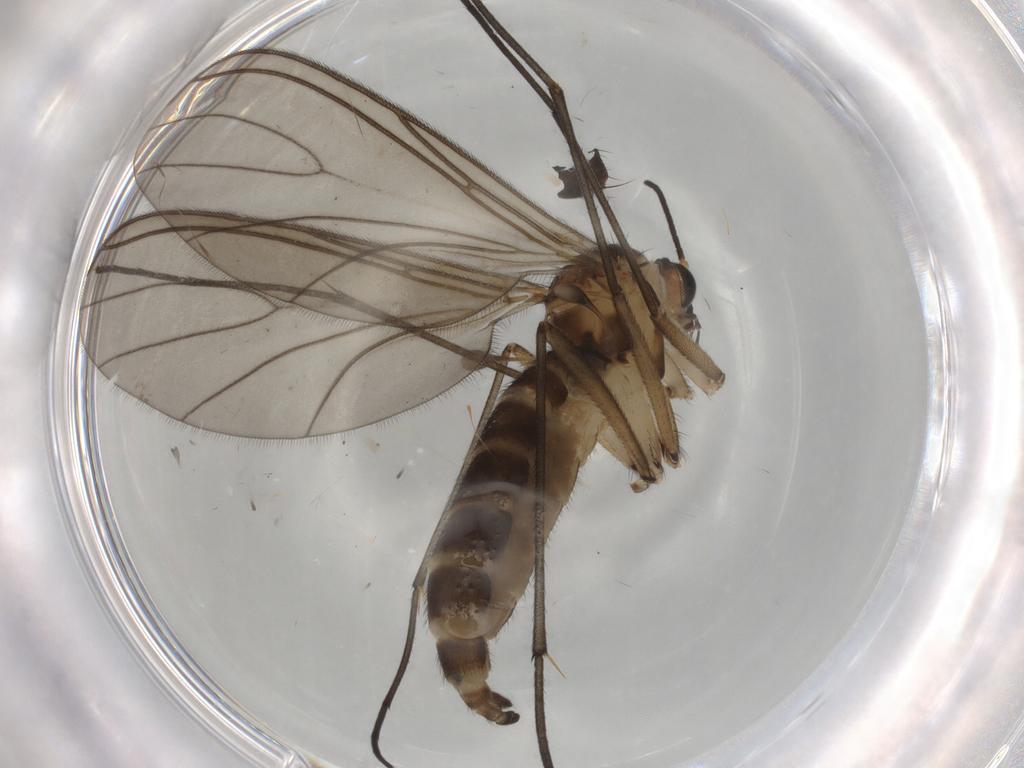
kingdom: Animalia
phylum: Arthropoda
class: Insecta
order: Diptera
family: Sciaridae
